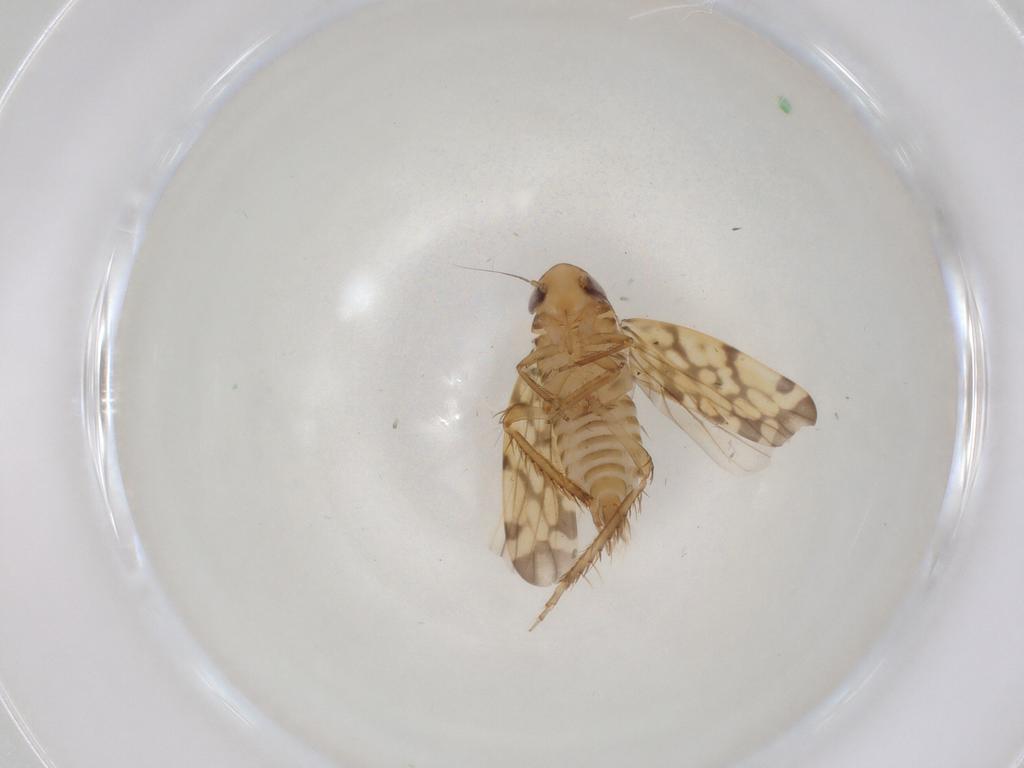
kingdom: Animalia
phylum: Arthropoda
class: Insecta
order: Hemiptera
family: Cicadellidae
